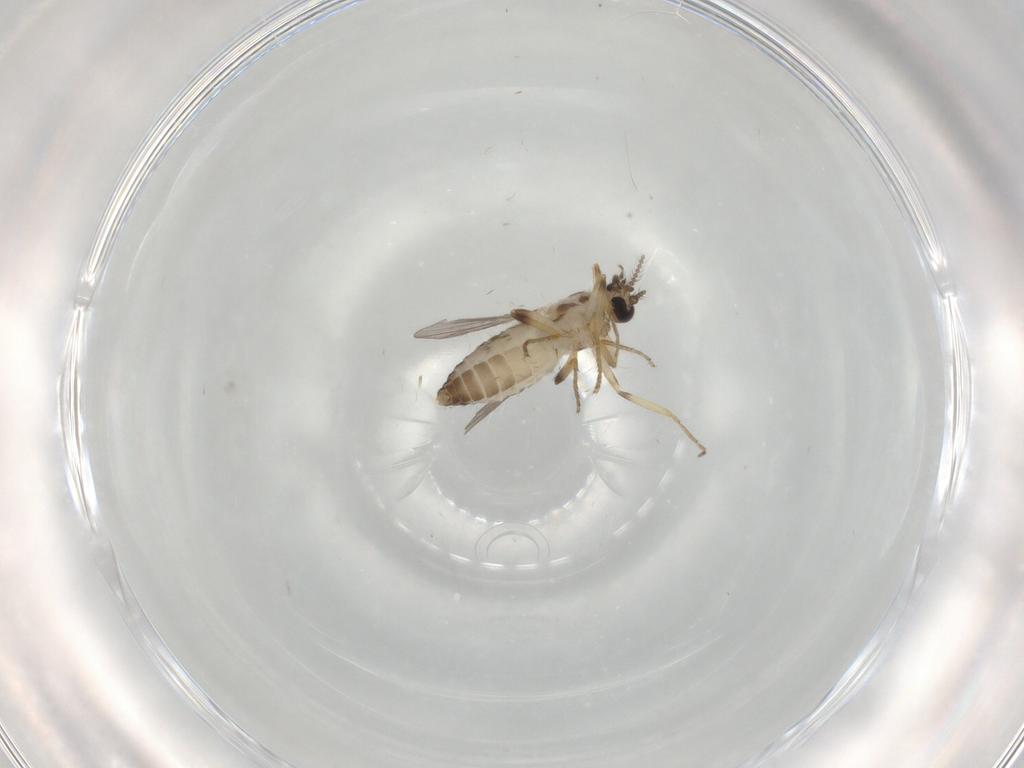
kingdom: Animalia
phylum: Arthropoda
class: Insecta
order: Diptera
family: Ceratopogonidae
